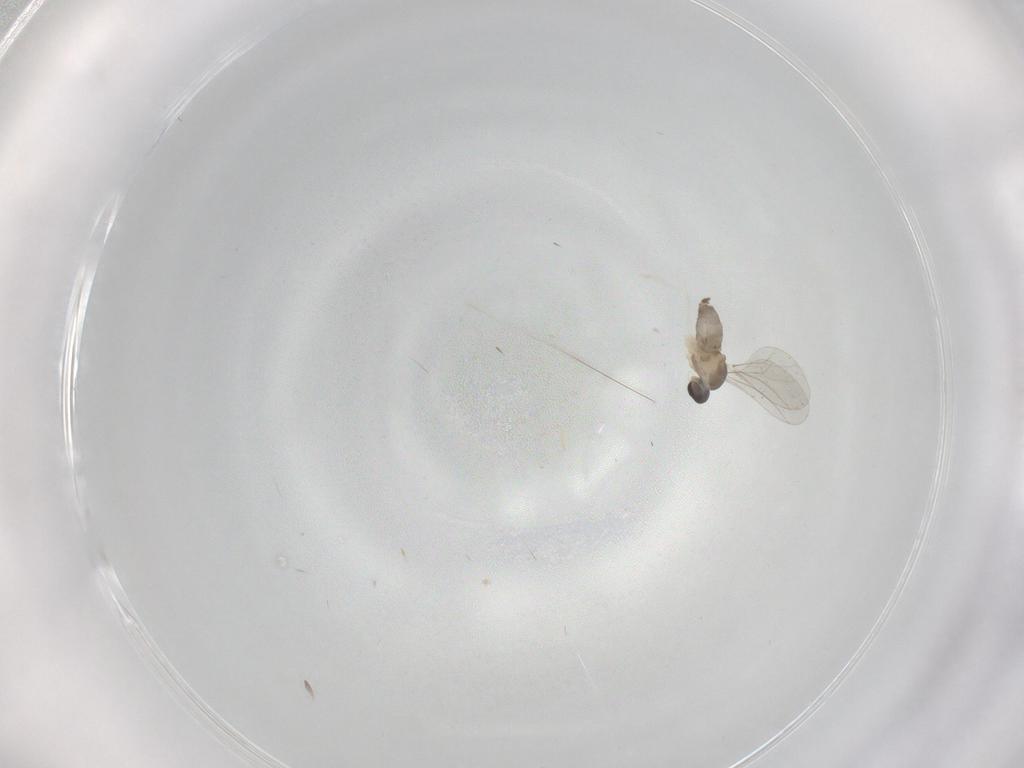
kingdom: Animalia
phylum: Arthropoda
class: Insecta
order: Diptera
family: Cecidomyiidae
